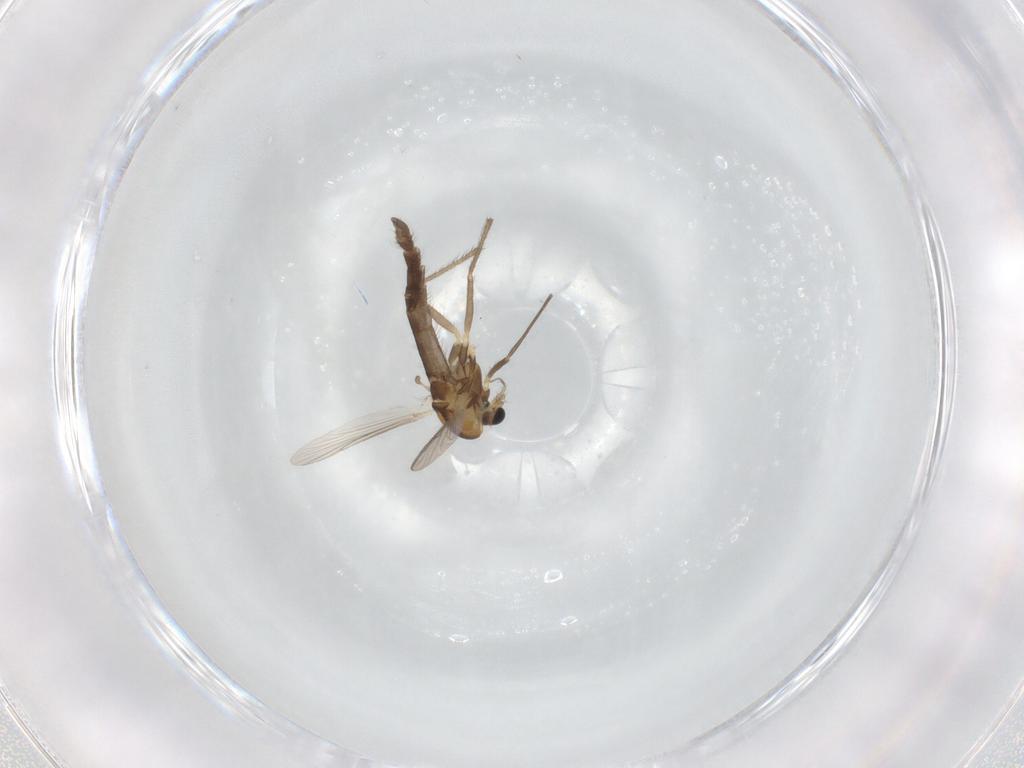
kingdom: Animalia
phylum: Arthropoda
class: Insecta
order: Diptera
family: Chironomidae
